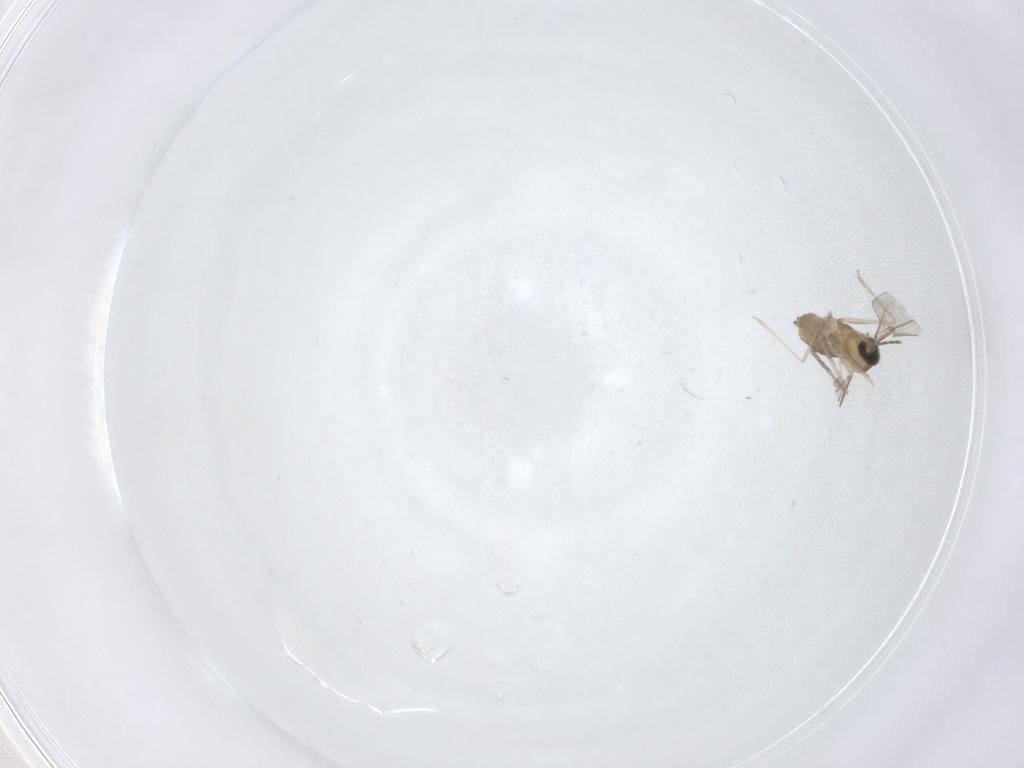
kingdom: Animalia
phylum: Arthropoda
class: Insecta
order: Diptera
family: Cecidomyiidae
